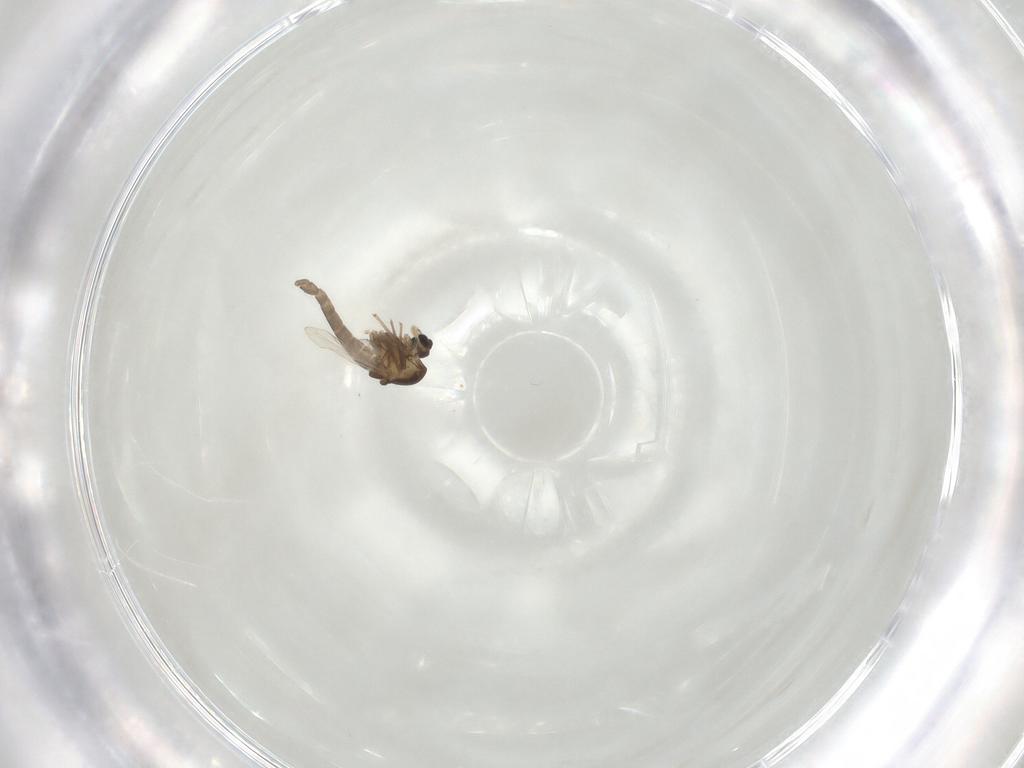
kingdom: Animalia
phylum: Arthropoda
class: Insecta
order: Diptera
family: Chironomidae
